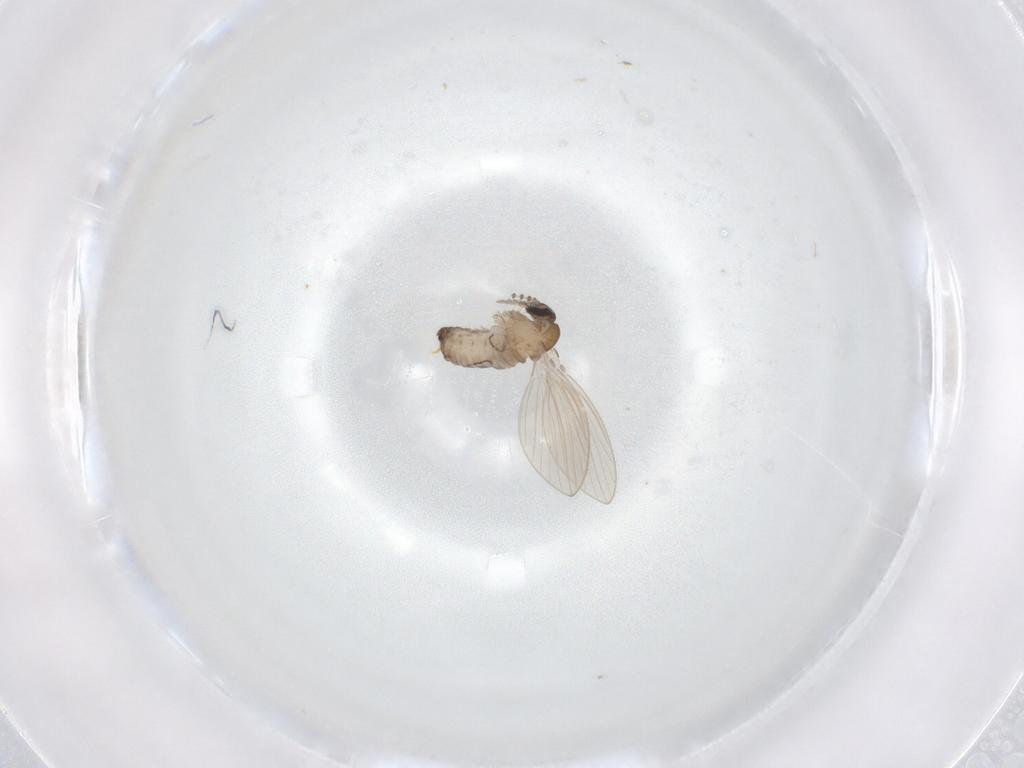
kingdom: Animalia
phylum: Arthropoda
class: Insecta
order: Diptera
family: Psychodidae
